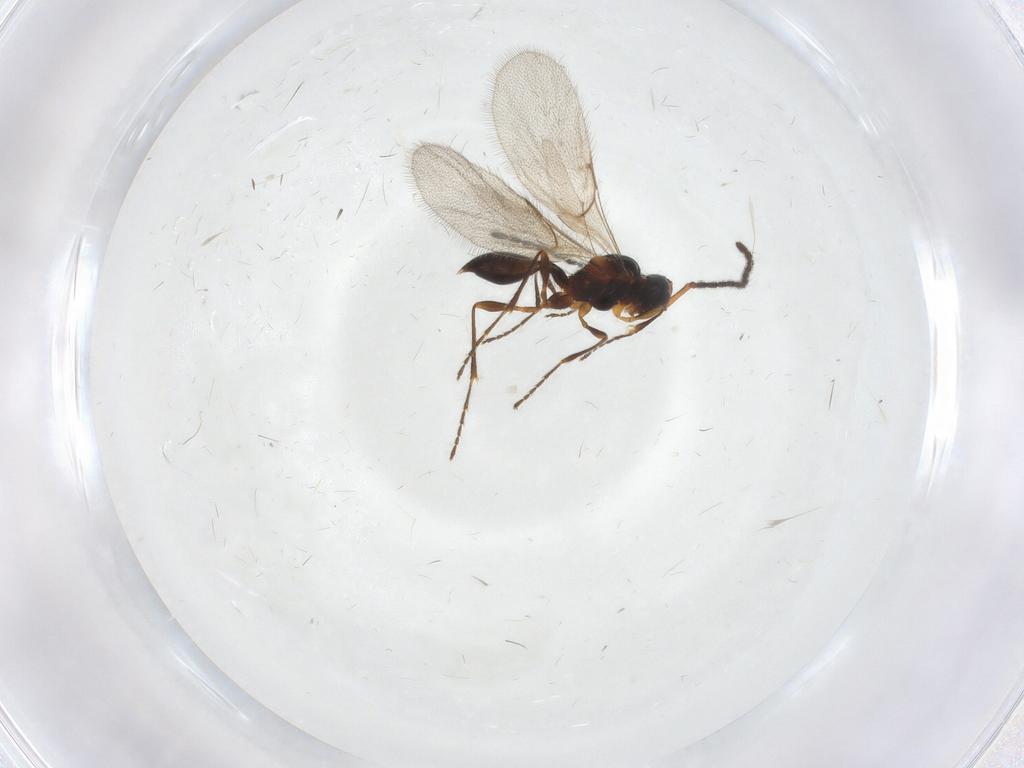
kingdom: Animalia
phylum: Arthropoda
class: Insecta
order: Hymenoptera
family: Diapriidae
